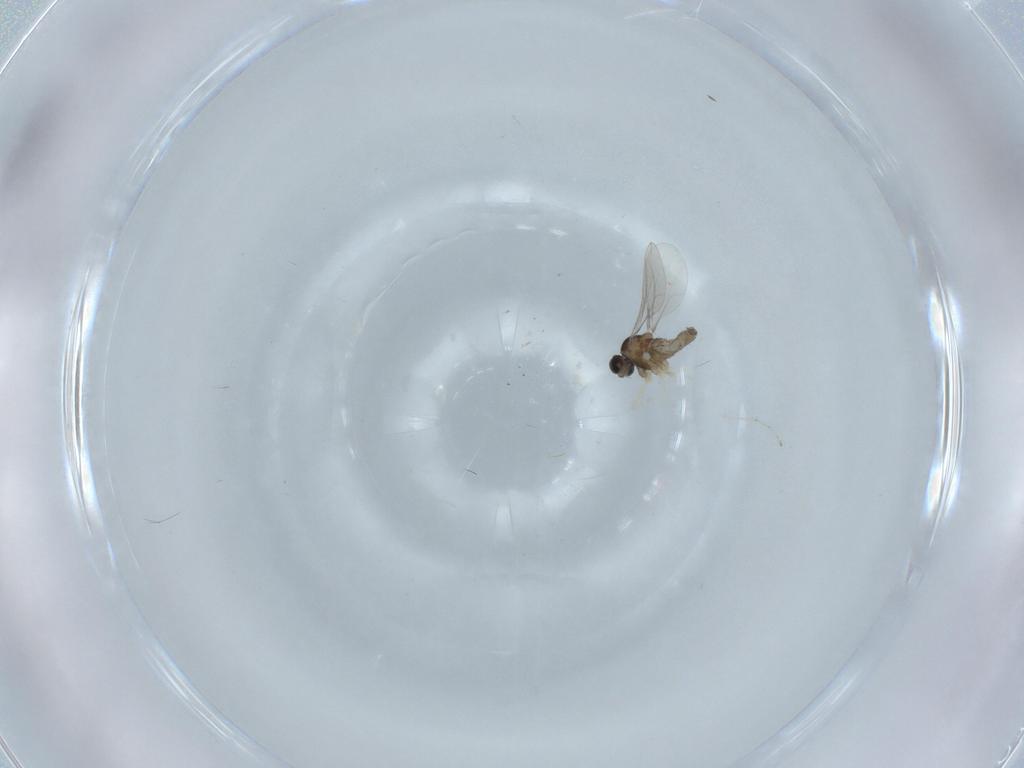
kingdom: Animalia
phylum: Arthropoda
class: Insecta
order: Diptera
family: Cecidomyiidae
